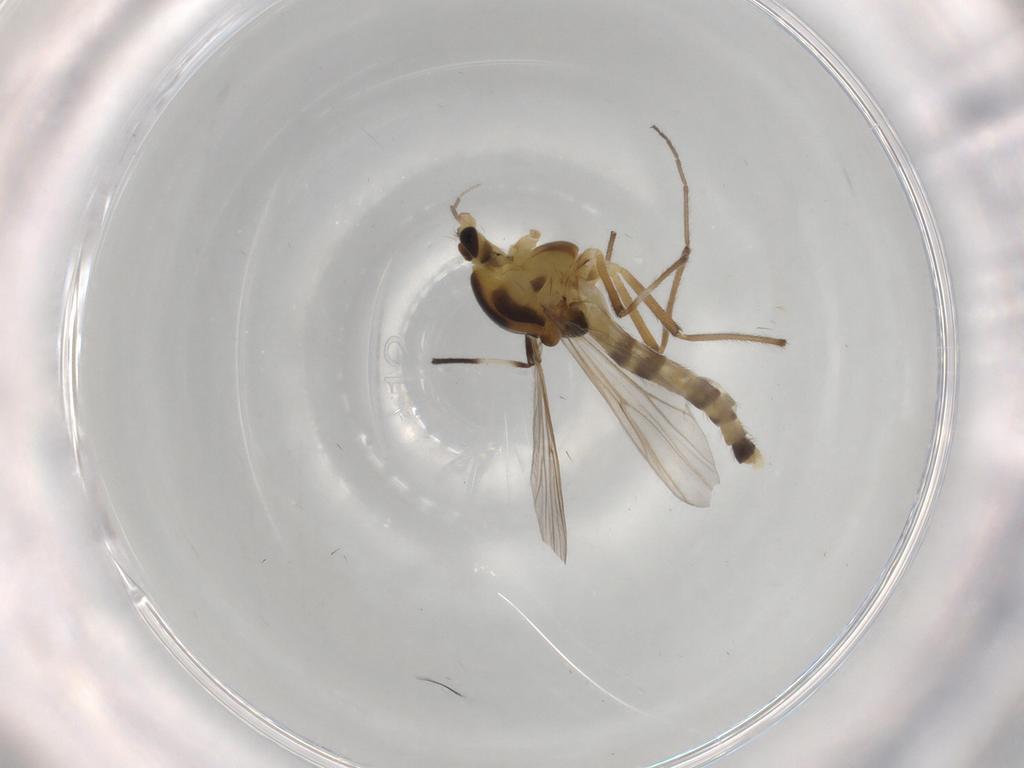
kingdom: Animalia
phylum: Arthropoda
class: Insecta
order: Diptera
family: Chironomidae
